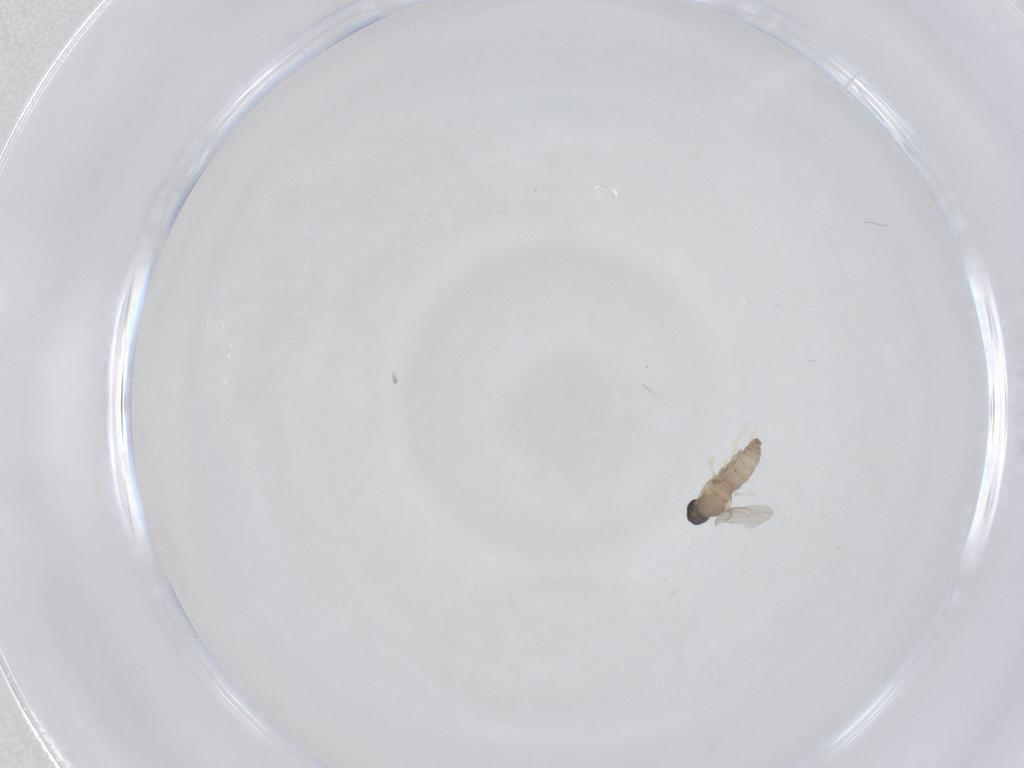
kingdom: Animalia
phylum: Arthropoda
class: Insecta
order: Diptera
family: Cecidomyiidae
